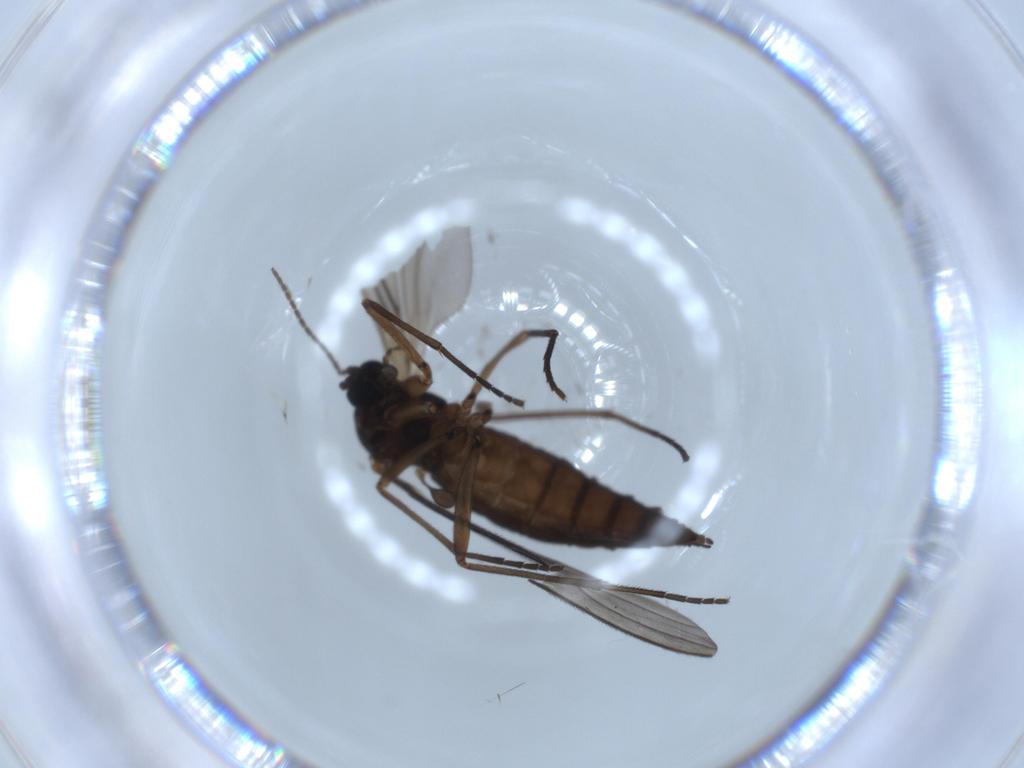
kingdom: Animalia
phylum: Arthropoda
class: Insecta
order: Diptera
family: Sciaridae
